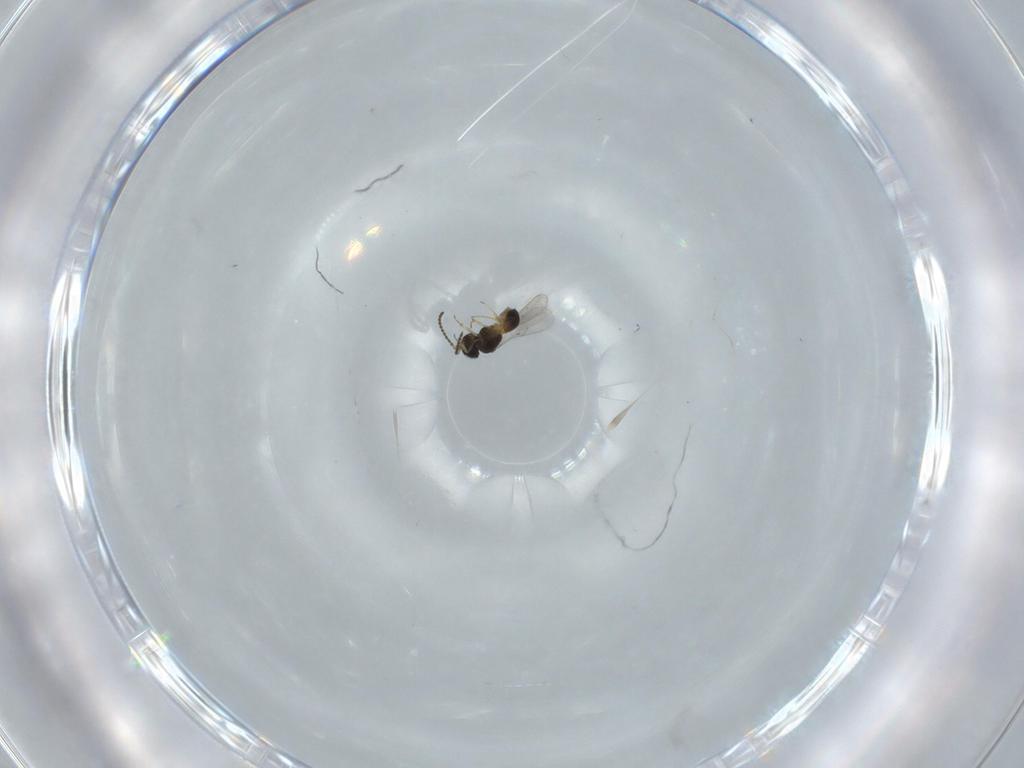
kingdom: Animalia
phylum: Arthropoda
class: Insecta
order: Hymenoptera
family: Scelionidae
